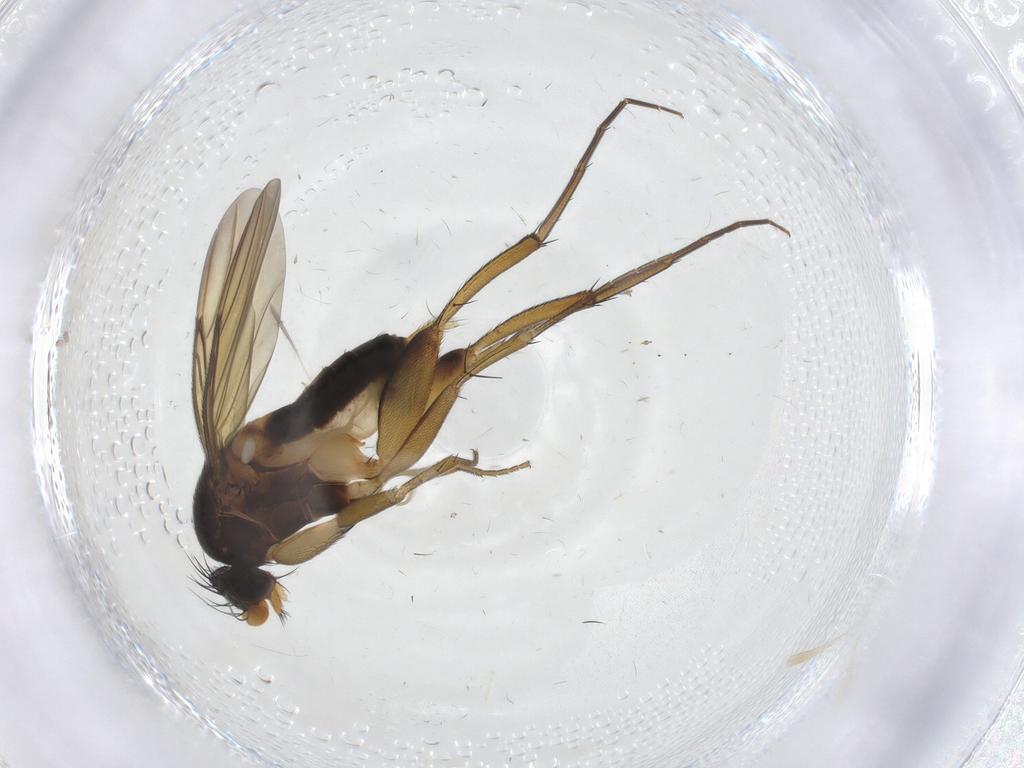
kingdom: Animalia
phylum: Arthropoda
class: Insecta
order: Diptera
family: Phoridae
